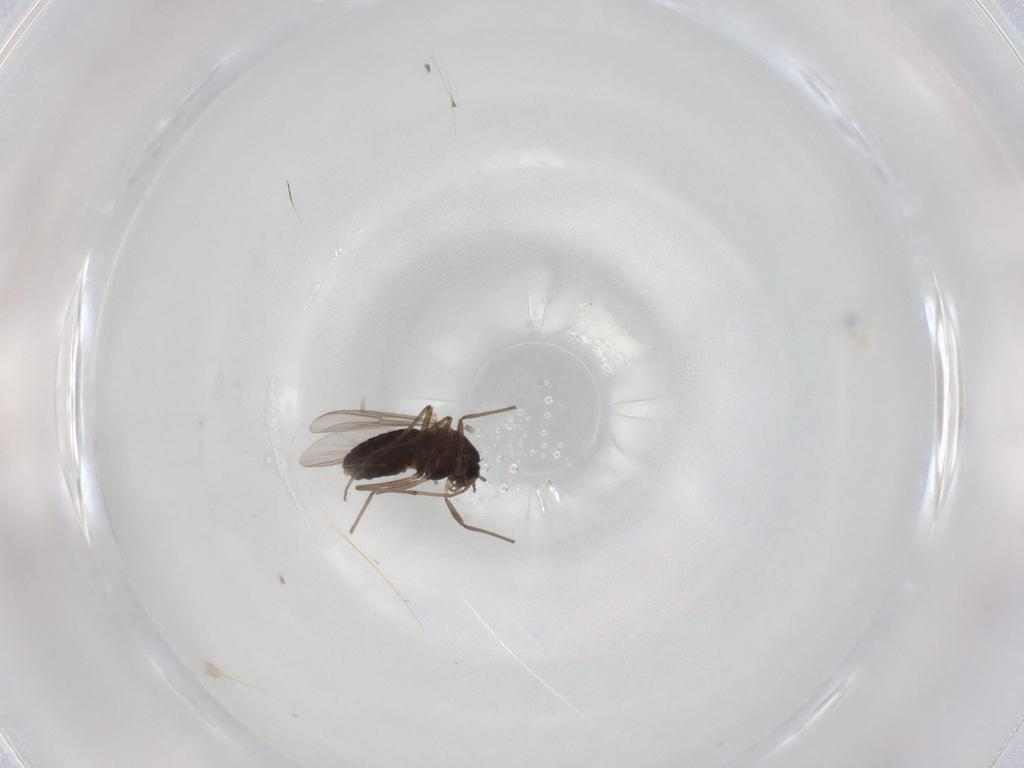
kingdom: Animalia
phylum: Arthropoda
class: Insecta
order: Diptera
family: Chironomidae
